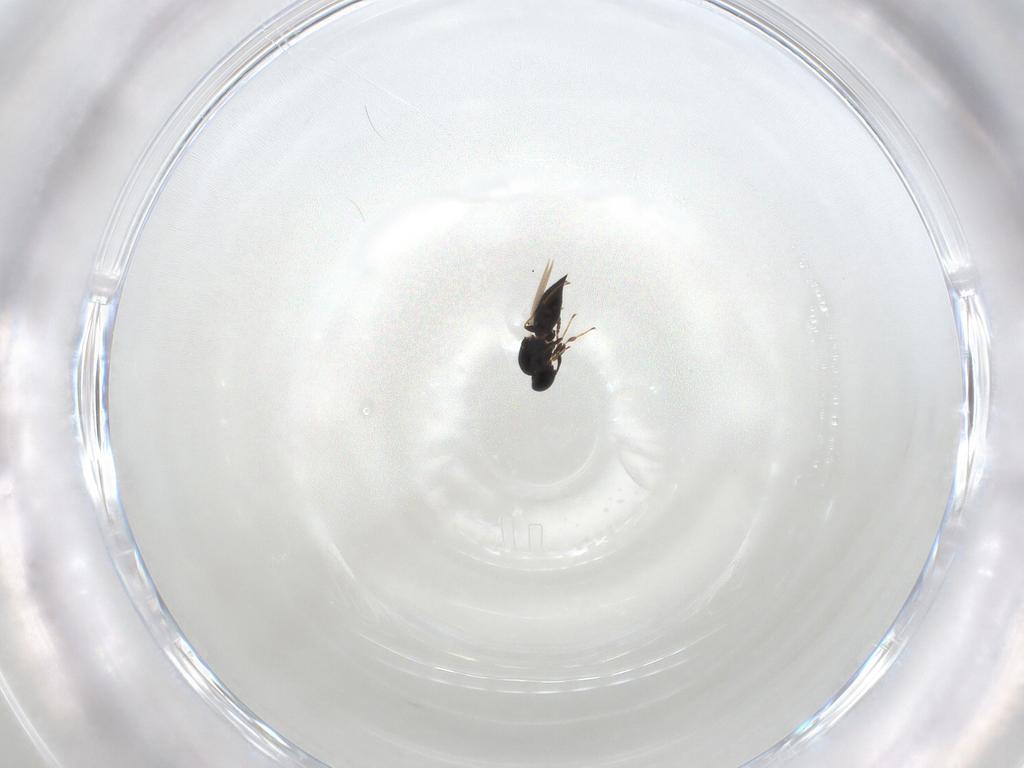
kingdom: Animalia
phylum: Arthropoda
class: Insecta
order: Hymenoptera
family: Platygastridae
